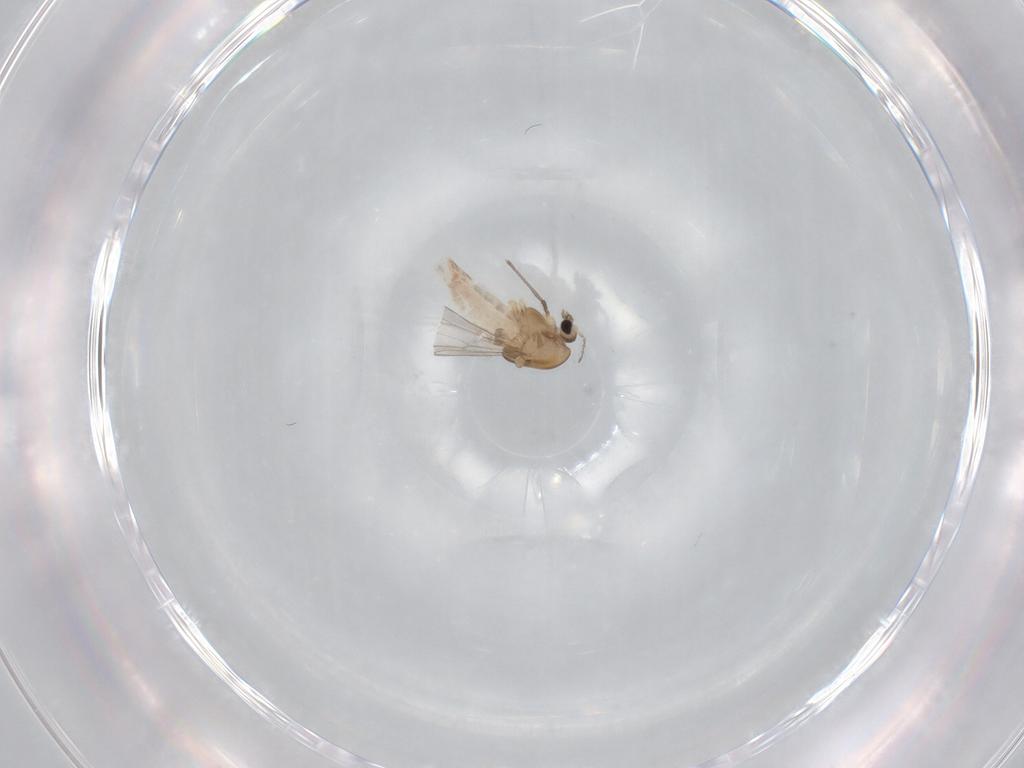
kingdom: Animalia
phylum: Arthropoda
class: Insecta
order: Diptera
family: Chironomidae
